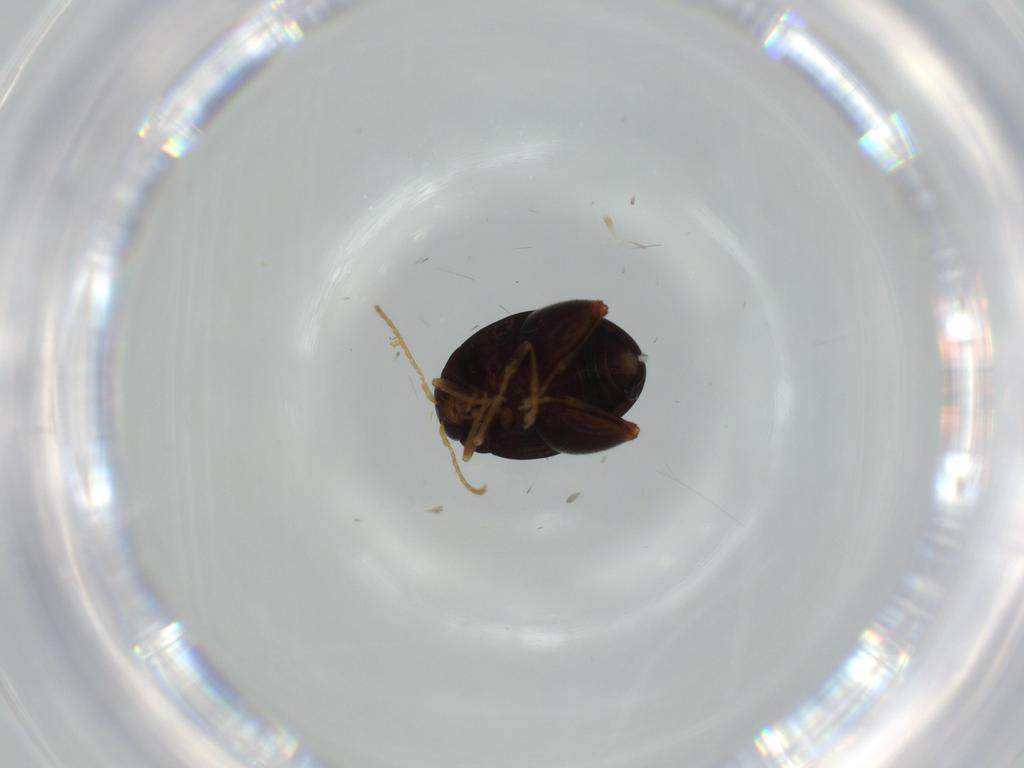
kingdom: Animalia
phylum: Arthropoda
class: Insecta
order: Coleoptera
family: Chrysomelidae
